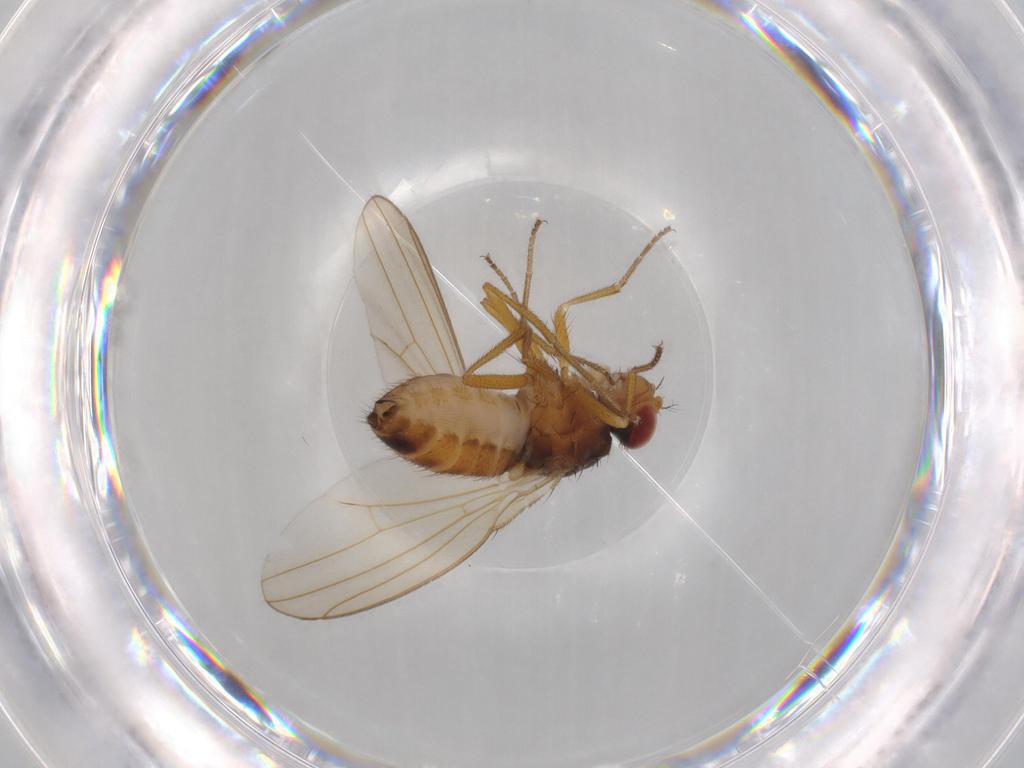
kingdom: Animalia
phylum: Arthropoda
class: Insecta
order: Diptera
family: Drosophilidae
